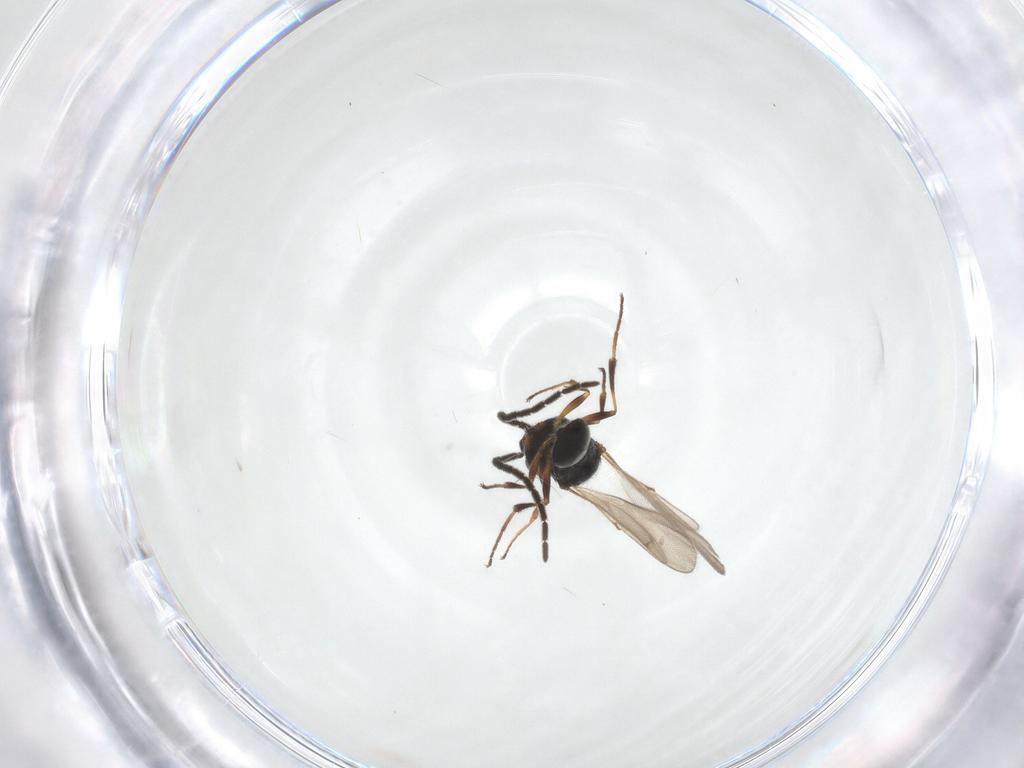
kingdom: Animalia
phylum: Arthropoda
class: Insecta
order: Hymenoptera
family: Scelionidae
